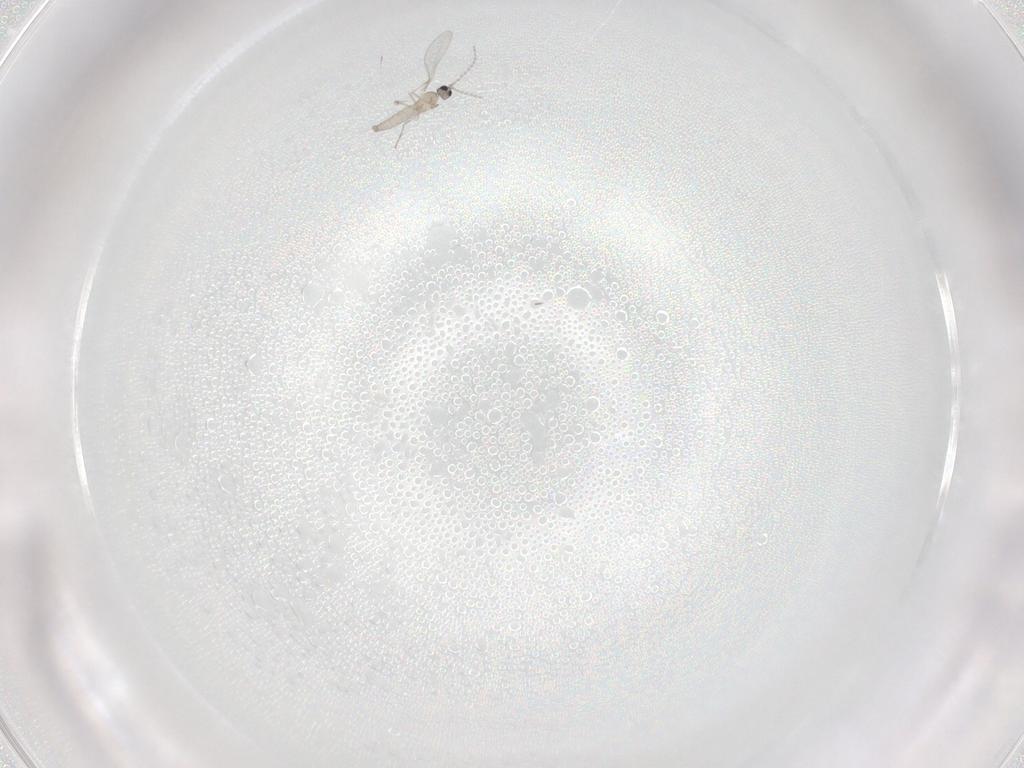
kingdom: Animalia
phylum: Arthropoda
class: Insecta
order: Diptera
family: Cecidomyiidae
